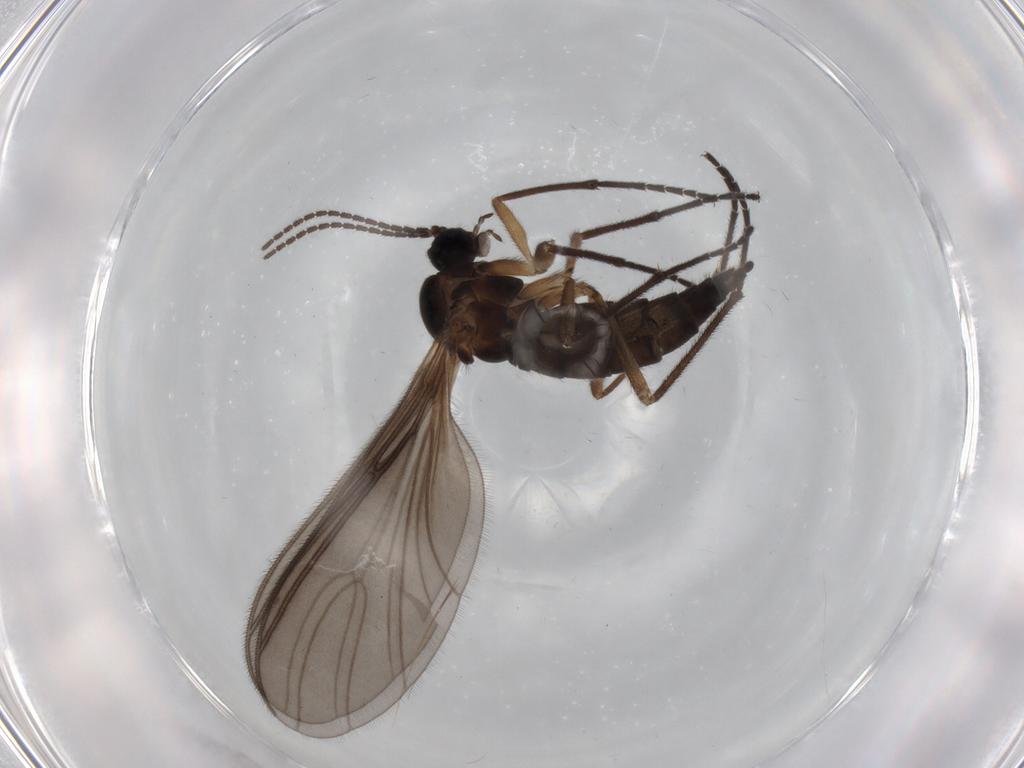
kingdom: Animalia
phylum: Arthropoda
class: Insecta
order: Diptera
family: Sciaridae
